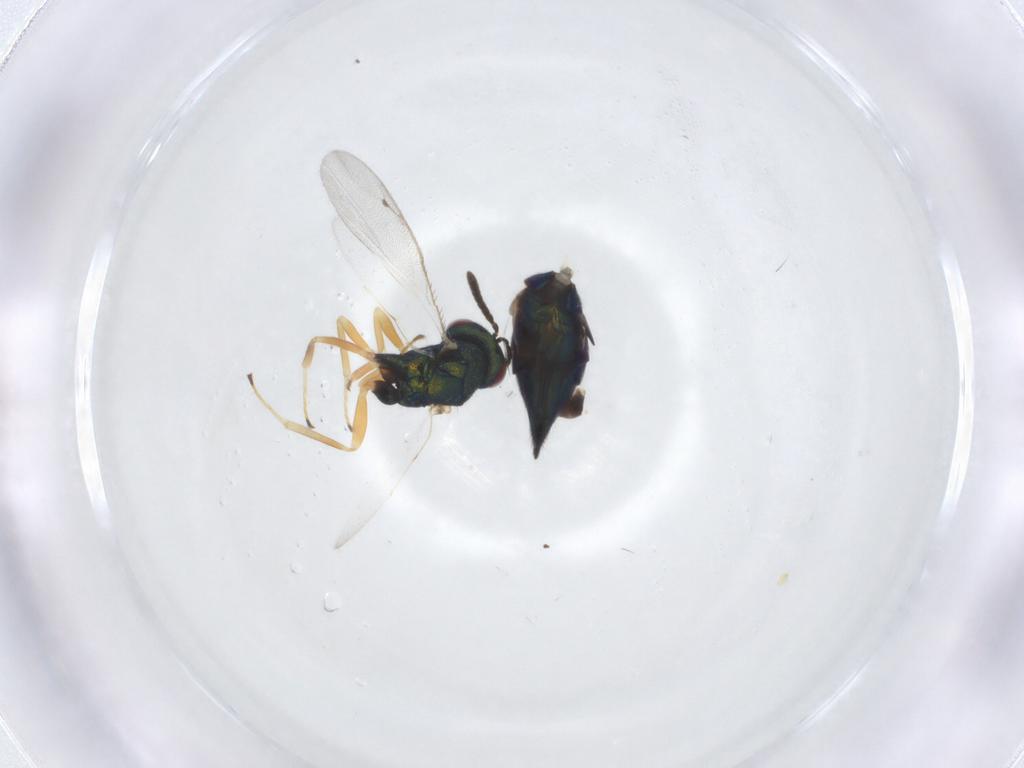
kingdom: Animalia
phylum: Arthropoda
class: Insecta
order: Hymenoptera
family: Pteromalidae
